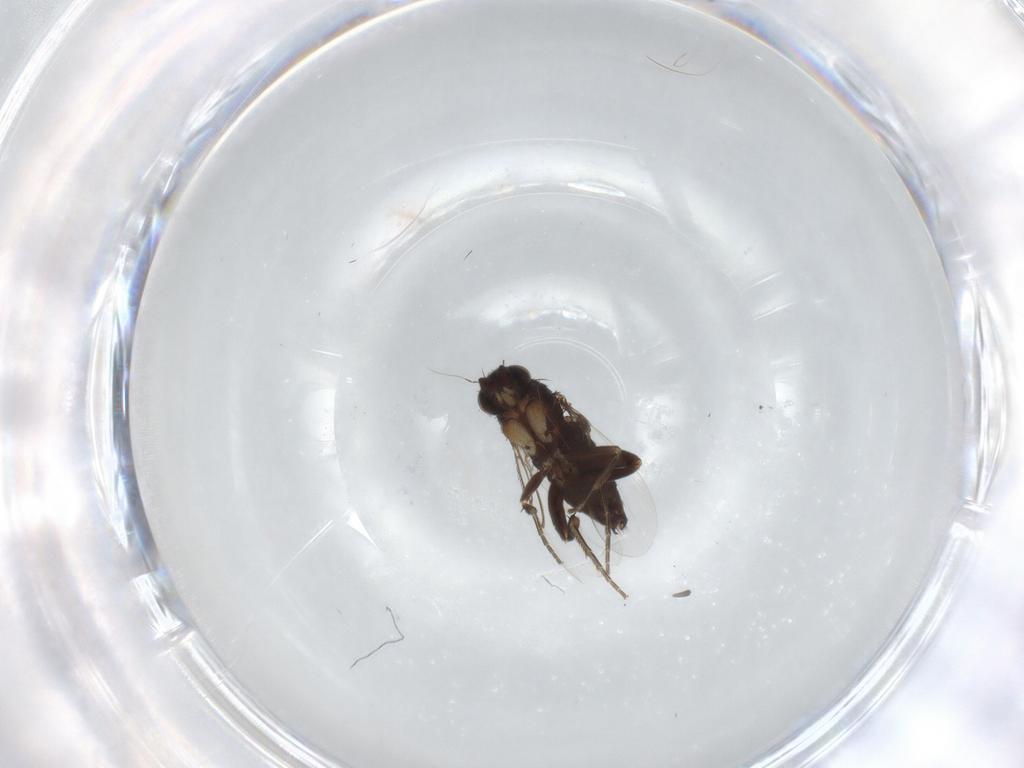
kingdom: Animalia
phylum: Arthropoda
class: Insecta
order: Diptera
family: Phoridae
